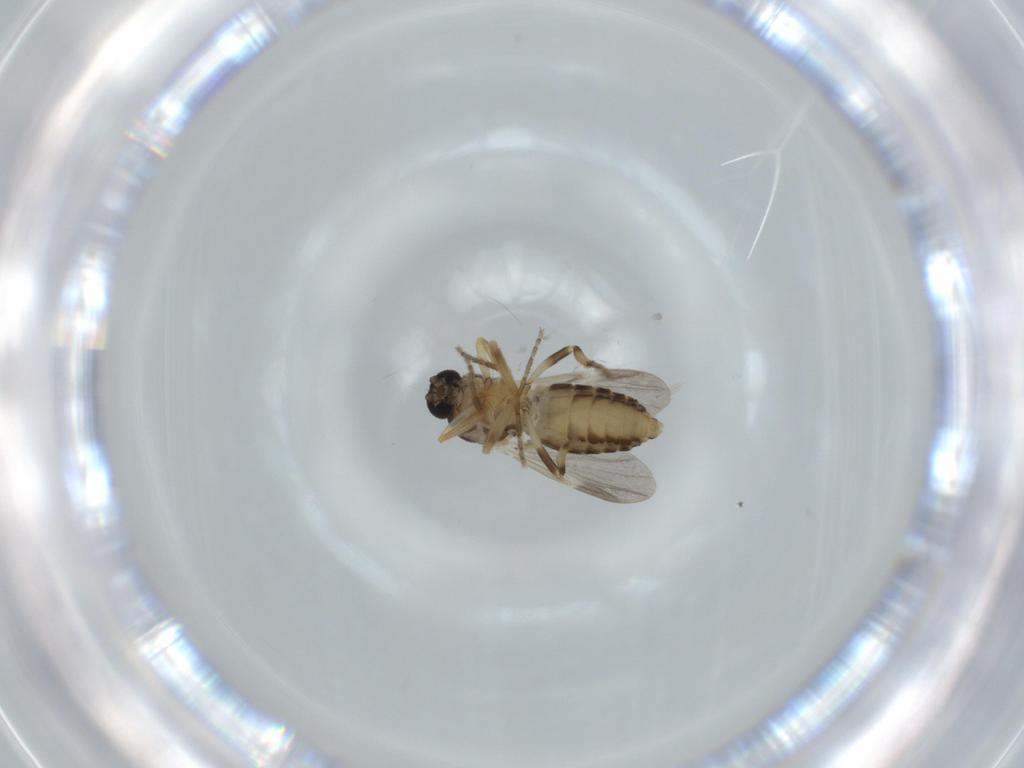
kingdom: Animalia
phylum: Arthropoda
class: Insecta
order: Diptera
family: Ceratopogonidae
